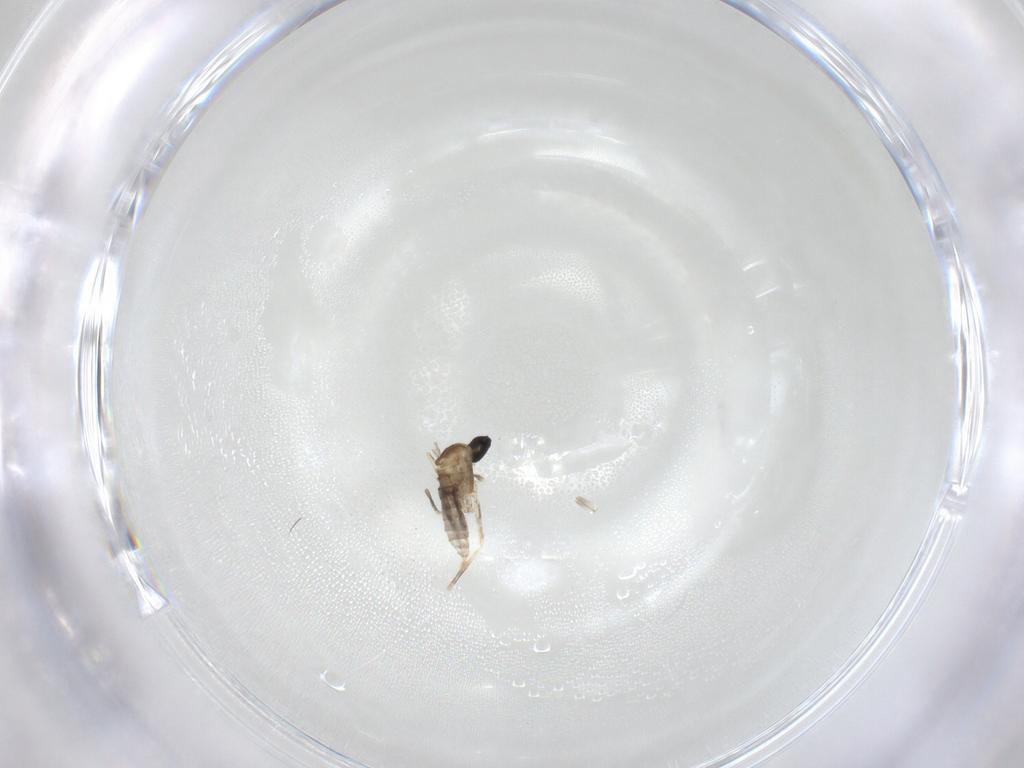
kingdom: Animalia
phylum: Arthropoda
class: Insecta
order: Diptera
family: Cecidomyiidae
